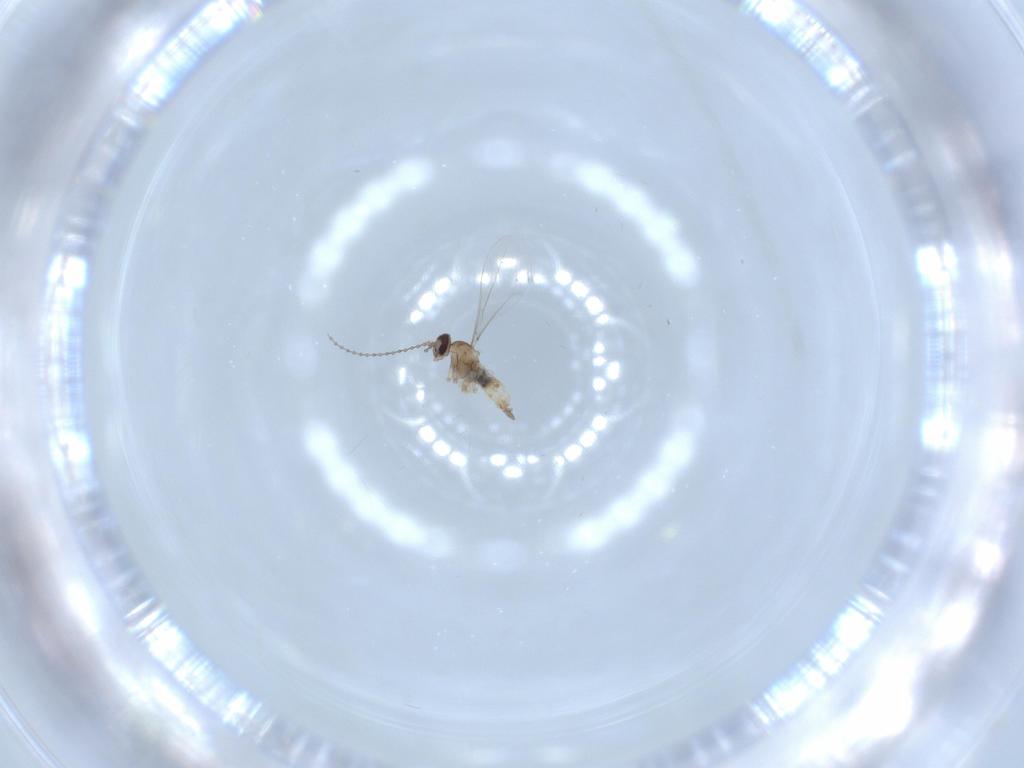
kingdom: Animalia
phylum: Arthropoda
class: Insecta
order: Diptera
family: Cecidomyiidae
